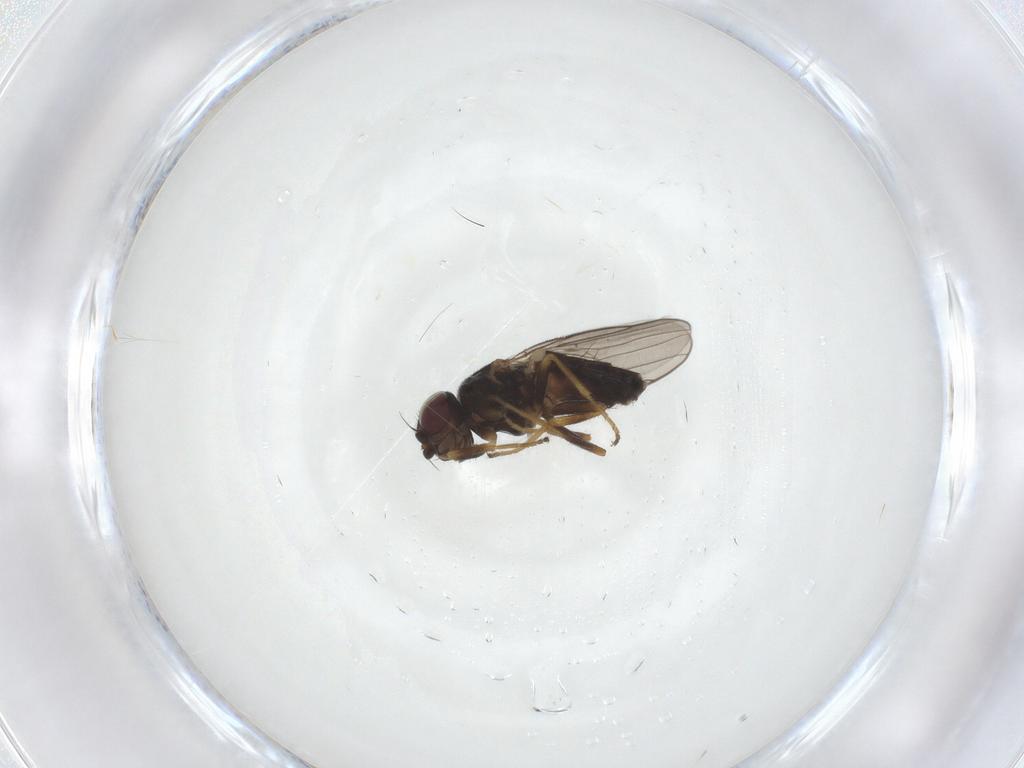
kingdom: Animalia
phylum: Arthropoda
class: Insecta
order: Diptera
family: Chloropidae
